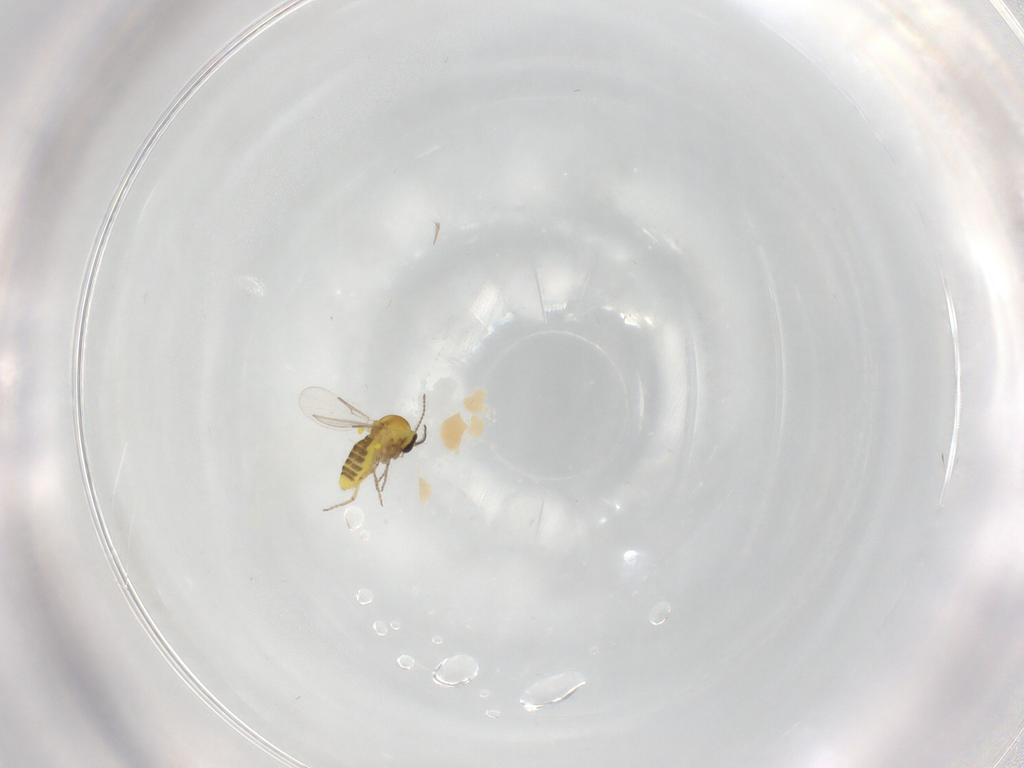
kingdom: Animalia
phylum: Arthropoda
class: Insecta
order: Diptera
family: Ceratopogonidae
